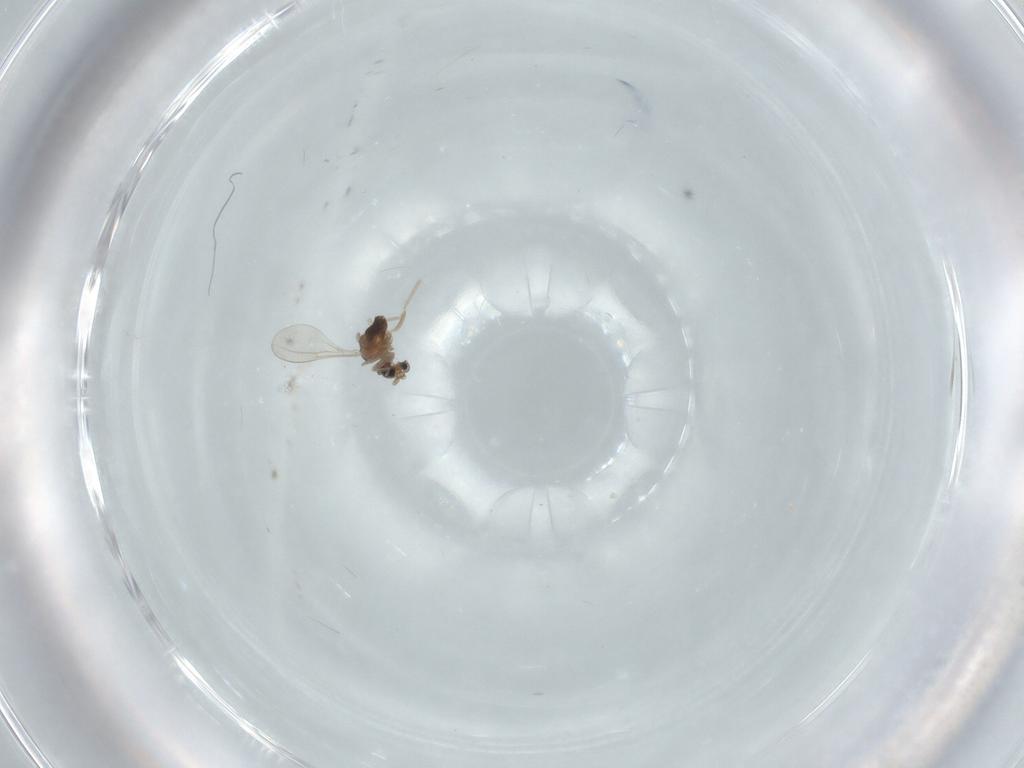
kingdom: Animalia
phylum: Arthropoda
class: Insecta
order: Diptera
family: Cecidomyiidae
